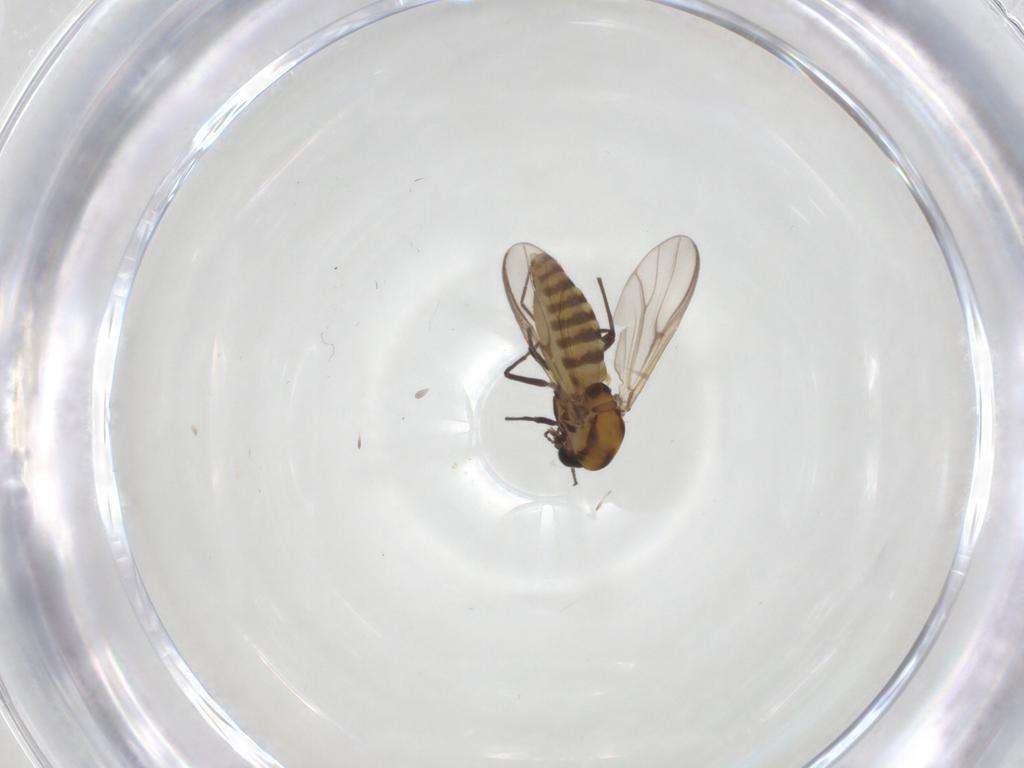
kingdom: Animalia
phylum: Arthropoda
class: Insecta
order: Diptera
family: Chironomidae
